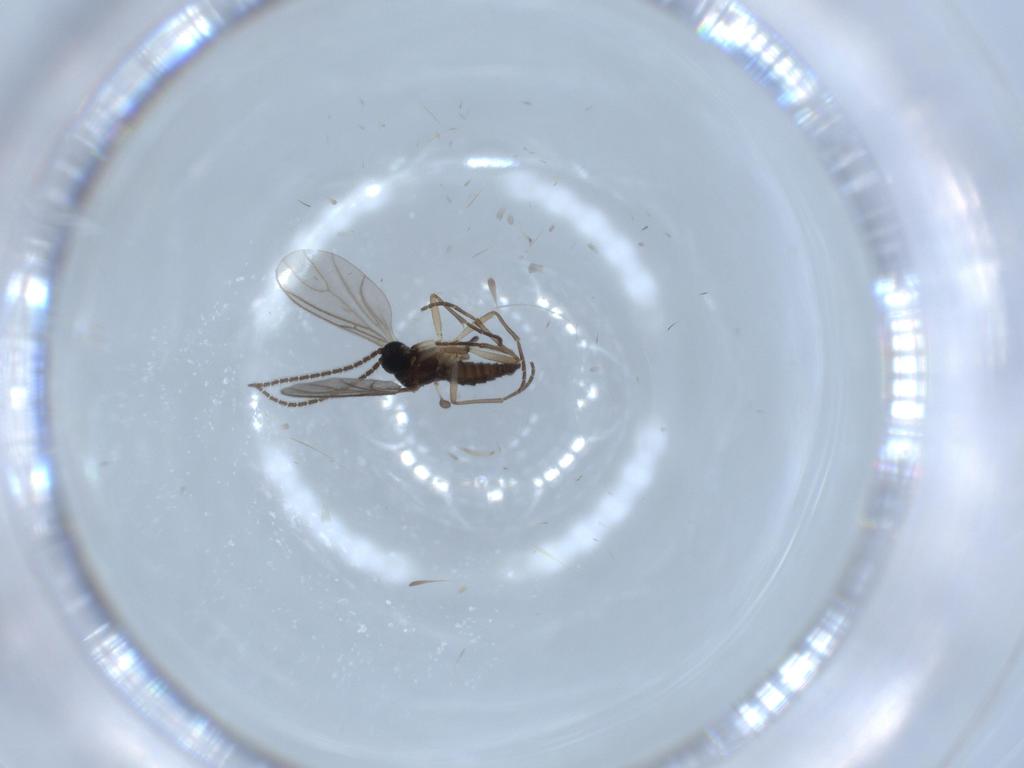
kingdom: Animalia
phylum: Arthropoda
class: Insecta
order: Diptera
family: Sciaridae
